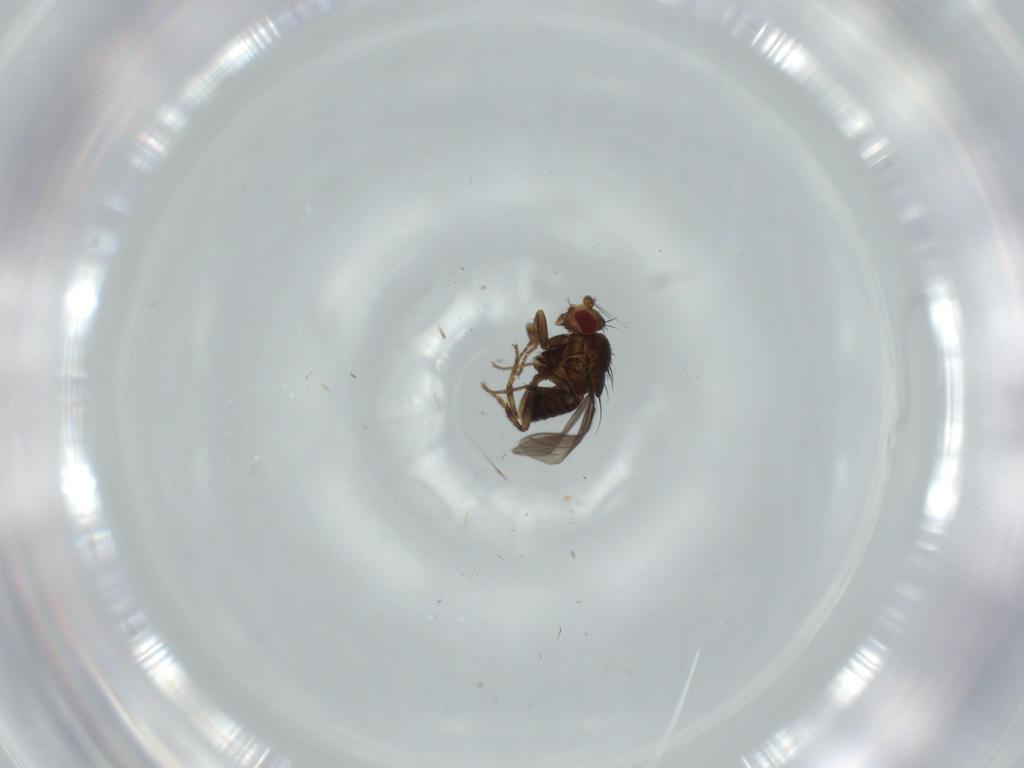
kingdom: Animalia
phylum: Arthropoda
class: Insecta
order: Diptera
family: Sphaeroceridae
